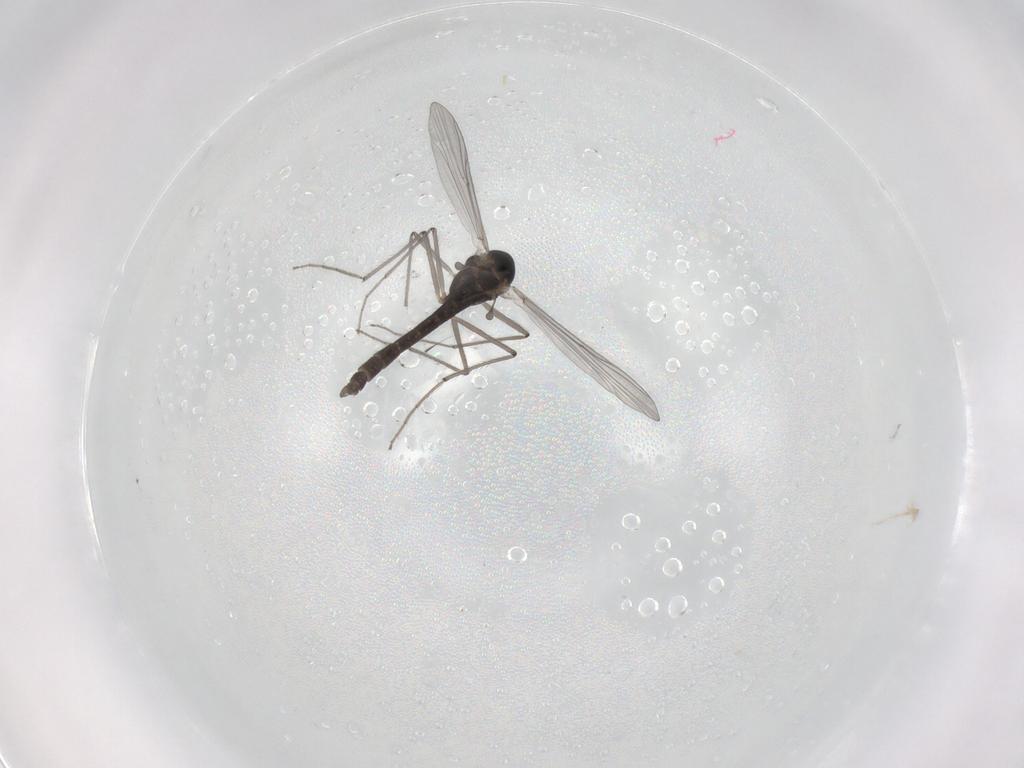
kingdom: Animalia
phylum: Arthropoda
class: Insecta
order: Diptera
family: Chironomidae
